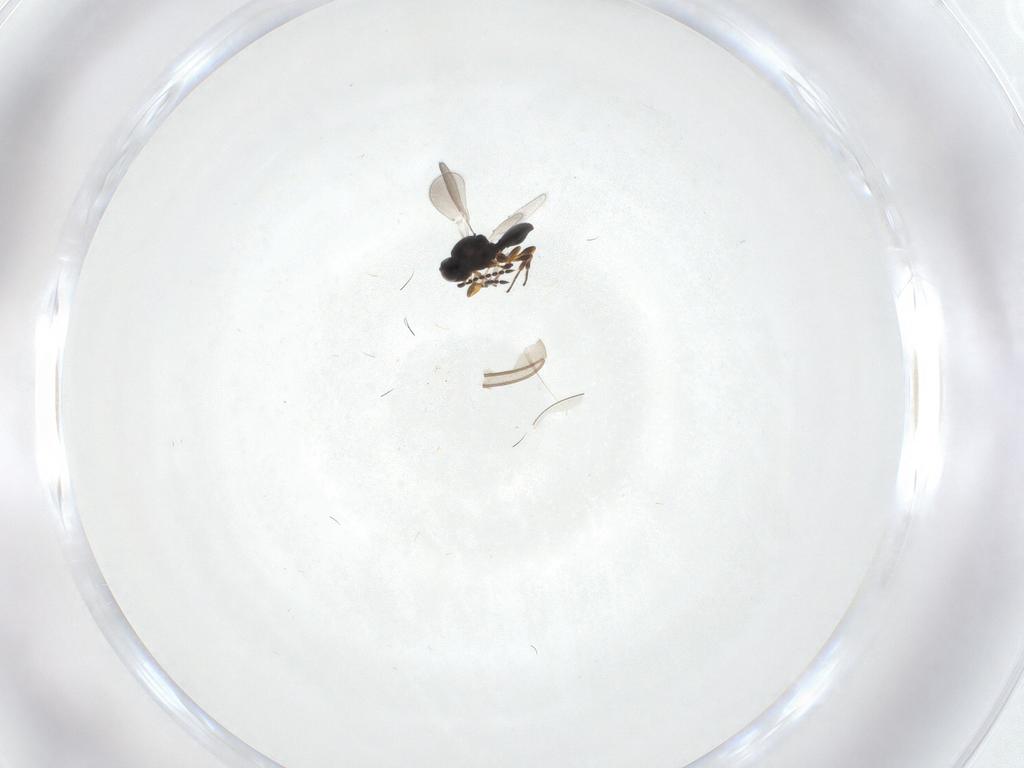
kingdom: Animalia
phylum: Arthropoda
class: Insecta
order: Hymenoptera
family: Platygastridae
